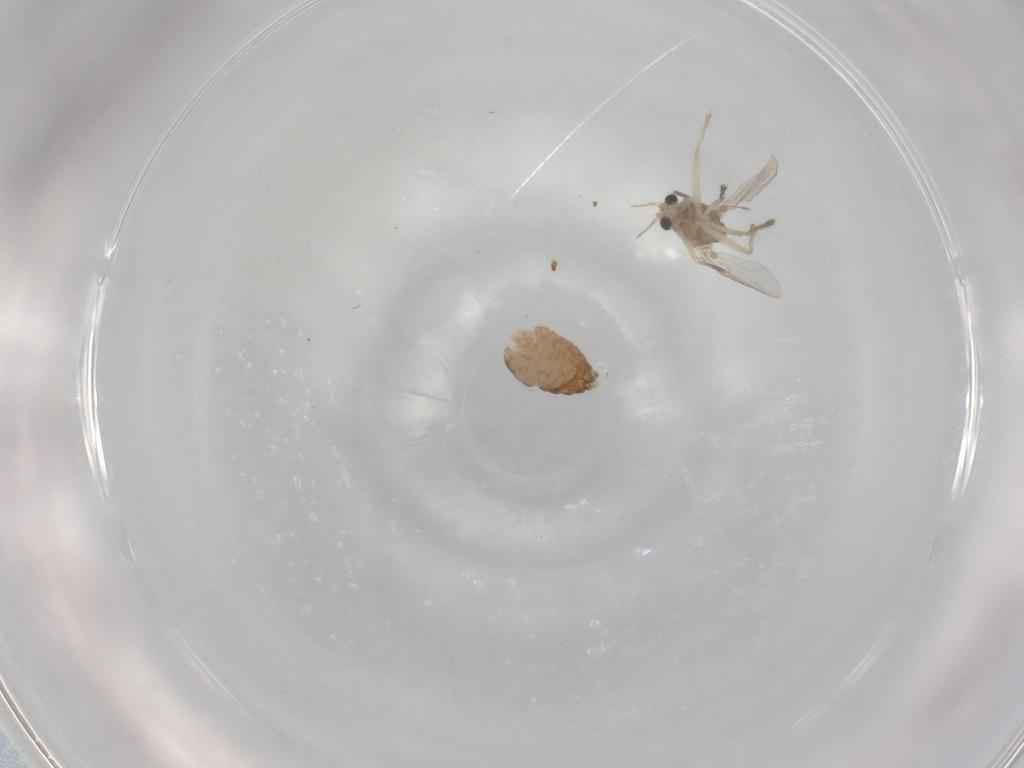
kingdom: Animalia
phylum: Arthropoda
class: Insecta
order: Diptera
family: Chironomidae
